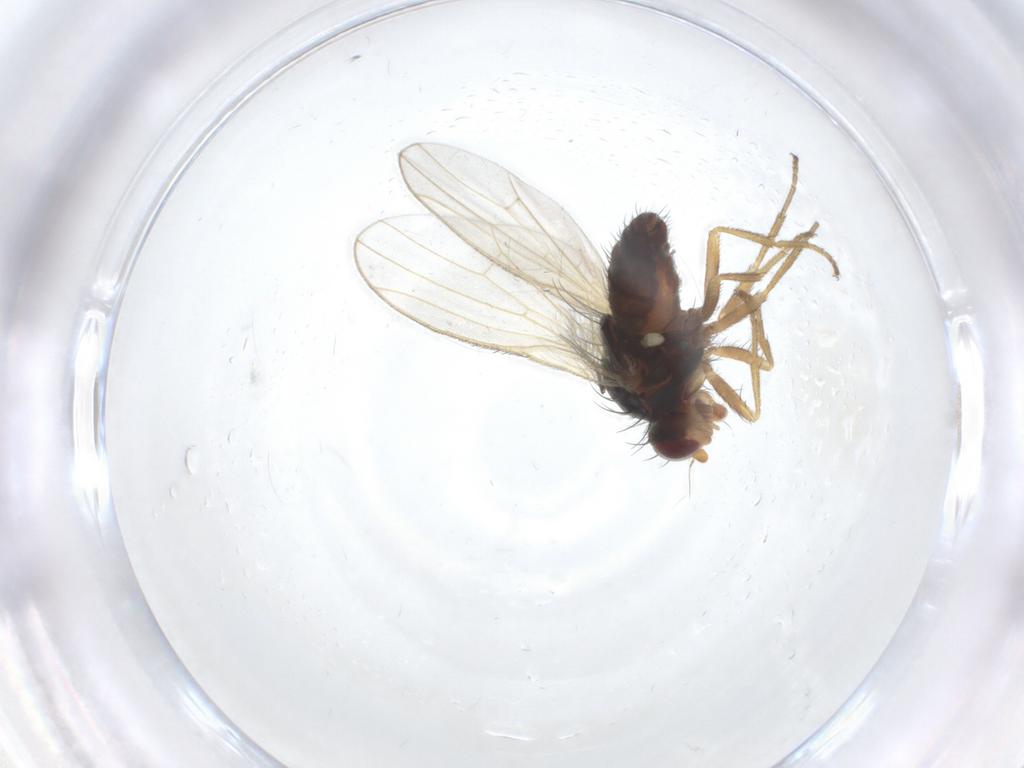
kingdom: Animalia
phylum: Arthropoda
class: Insecta
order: Diptera
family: Heleomyzidae
